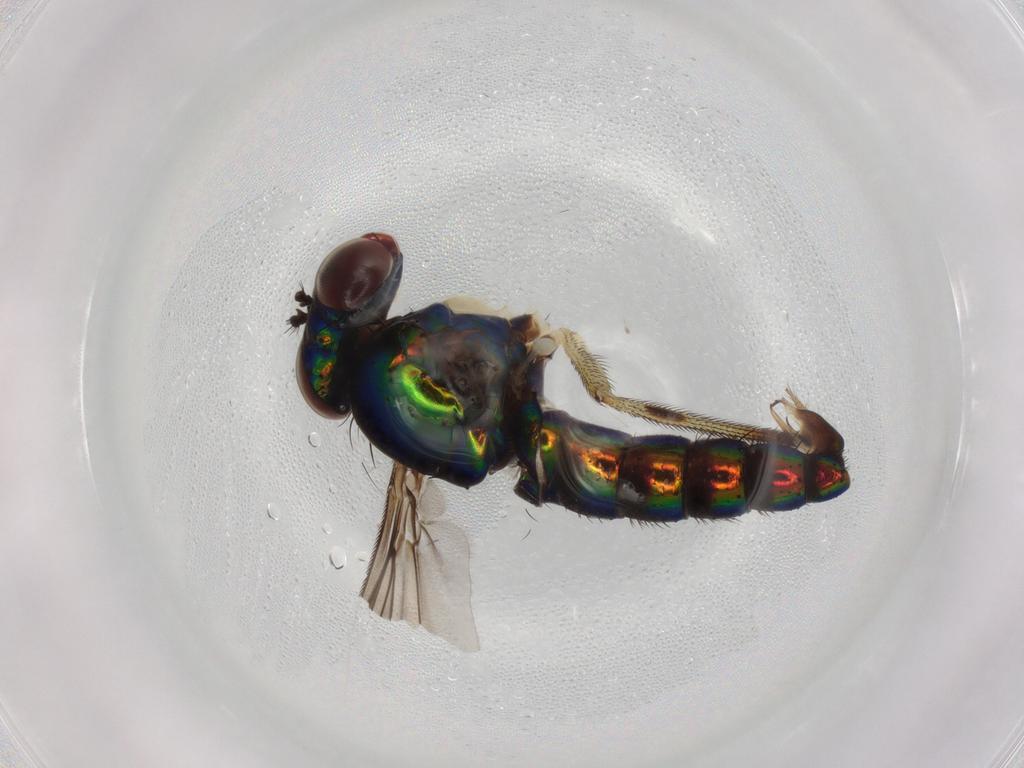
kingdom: Animalia
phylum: Arthropoda
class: Insecta
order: Diptera
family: Dolichopodidae
